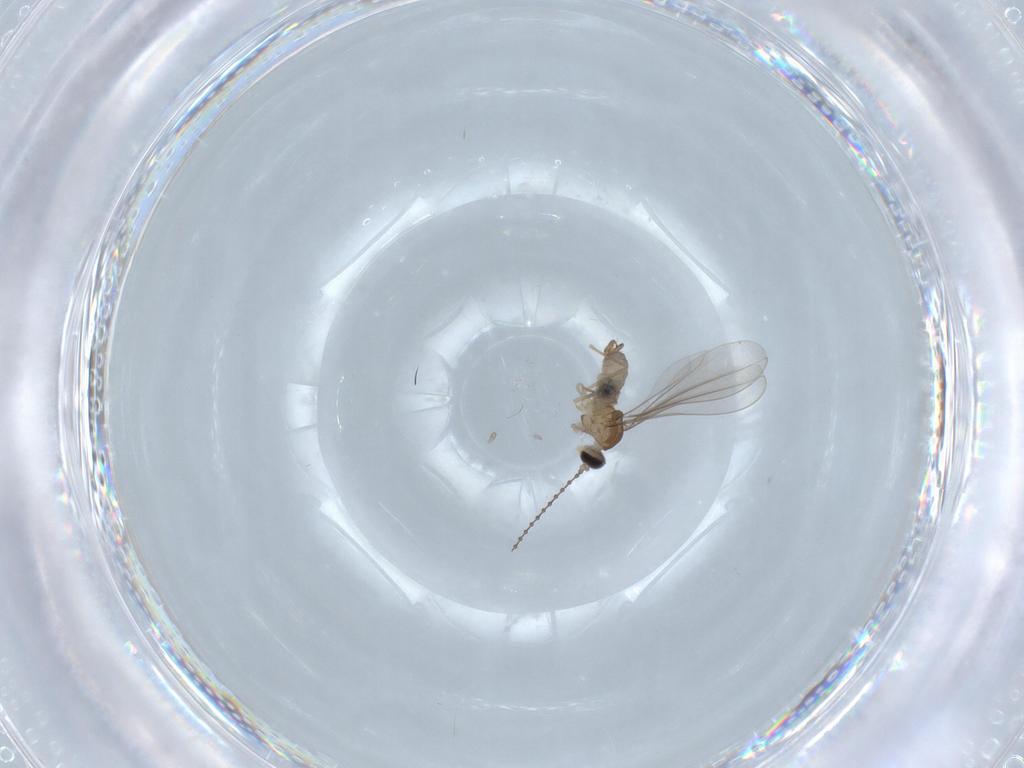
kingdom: Animalia
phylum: Arthropoda
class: Insecta
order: Diptera
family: Cecidomyiidae
